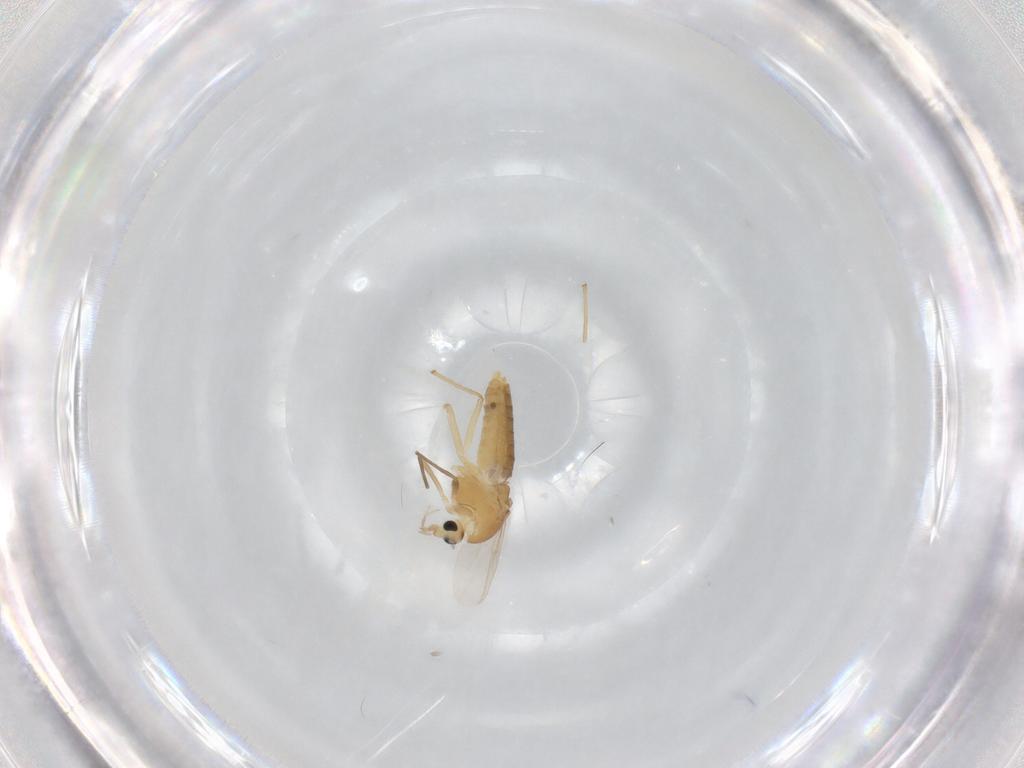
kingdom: Animalia
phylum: Arthropoda
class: Insecta
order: Diptera
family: Chironomidae
